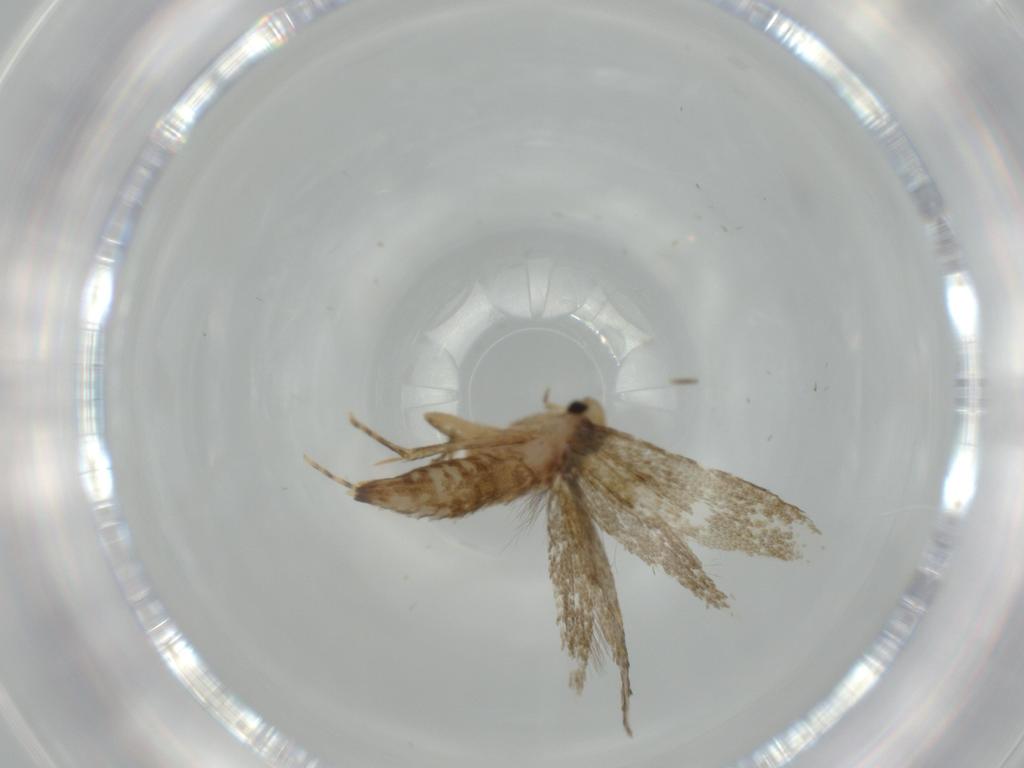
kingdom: Animalia
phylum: Arthropoda
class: Insecta
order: Lepidoptera
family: Tineidae
